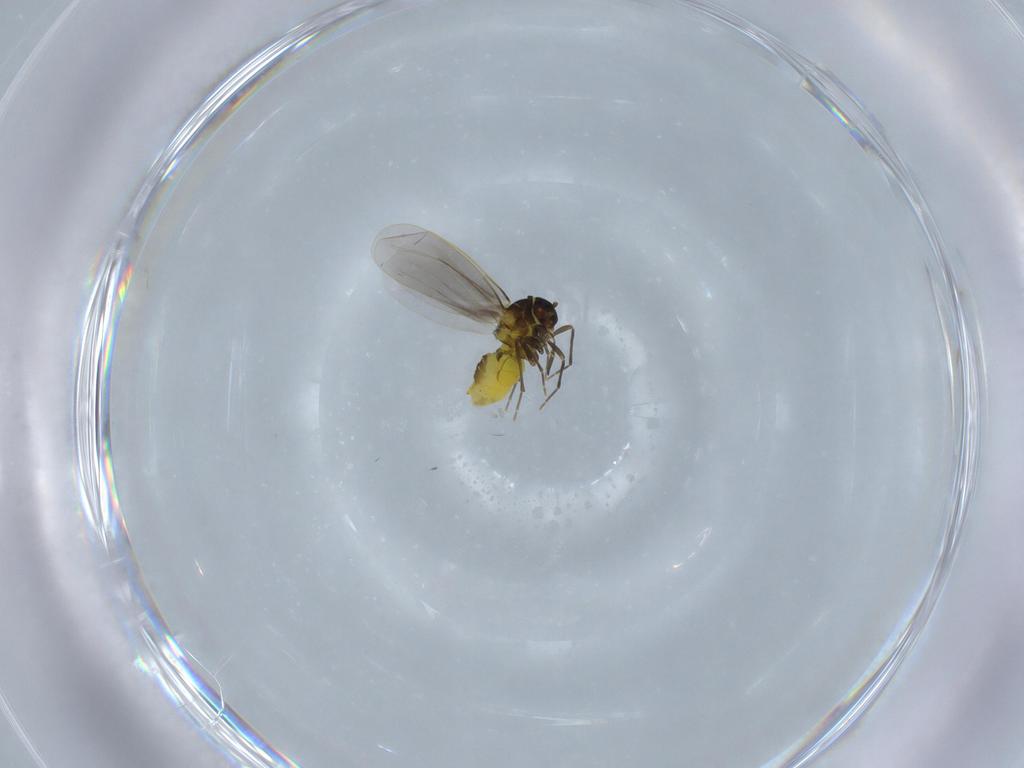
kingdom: Animalia
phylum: Arthropoda
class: Insecta
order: Hemiptera
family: Aleyrodidae
